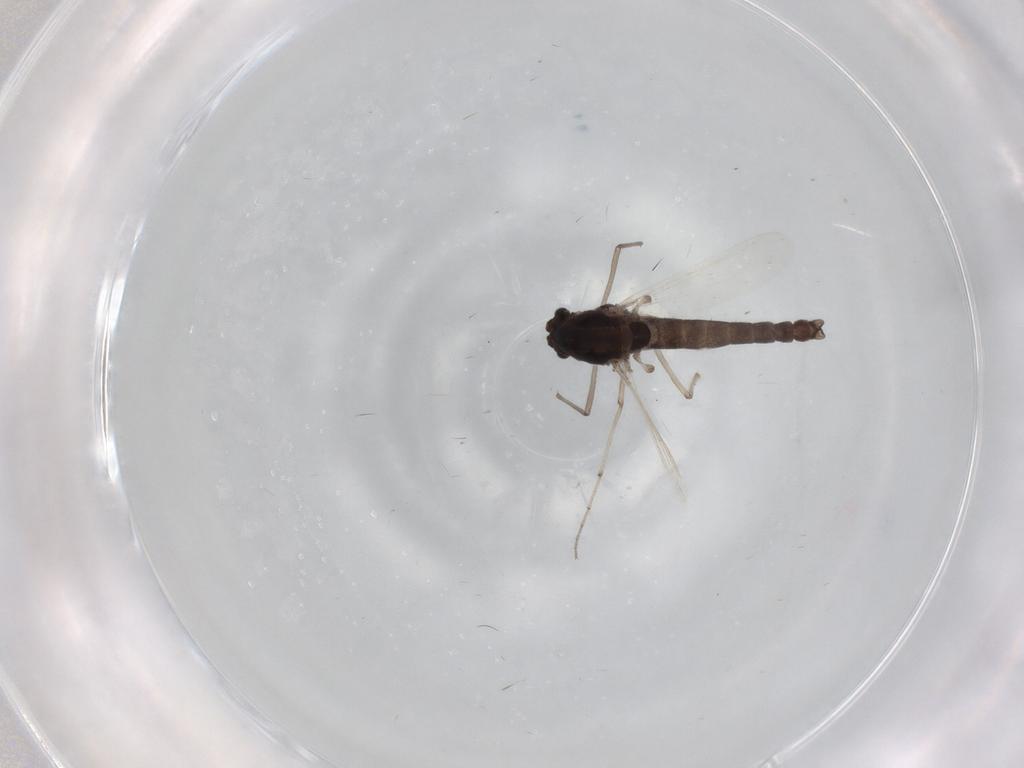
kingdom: Animalia
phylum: Arthropoda
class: Insecta
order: Diptera
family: Phoridae
